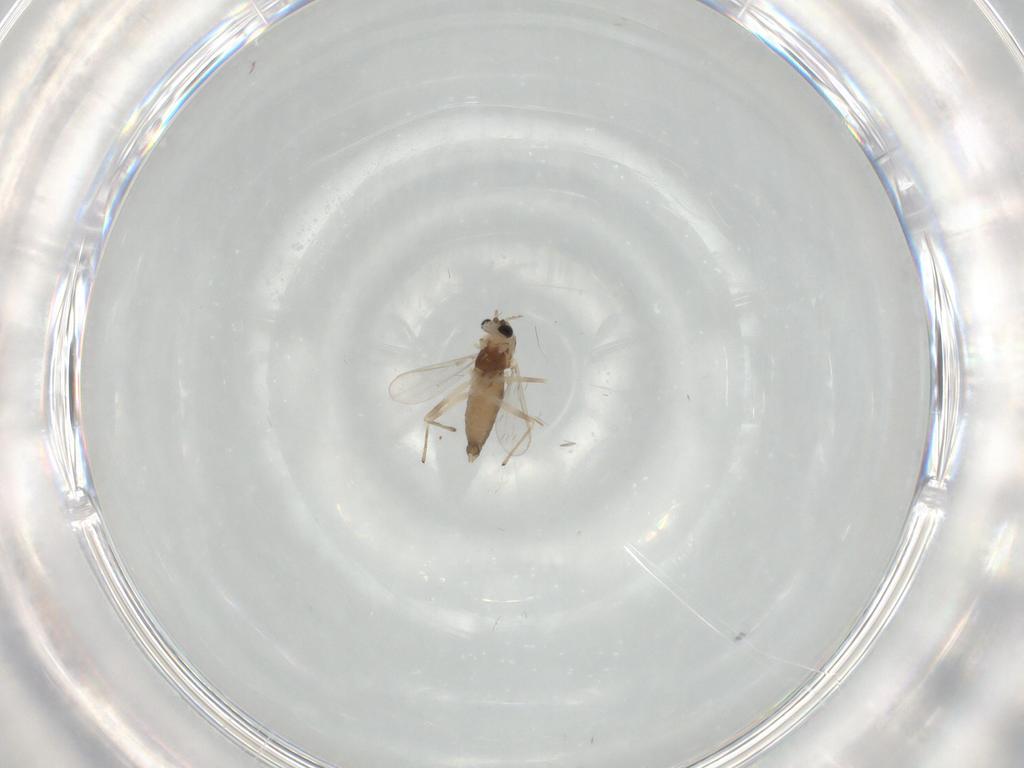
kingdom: Animalia
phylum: Arthropoda
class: Insecta
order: Diptera
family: Chironomidae
